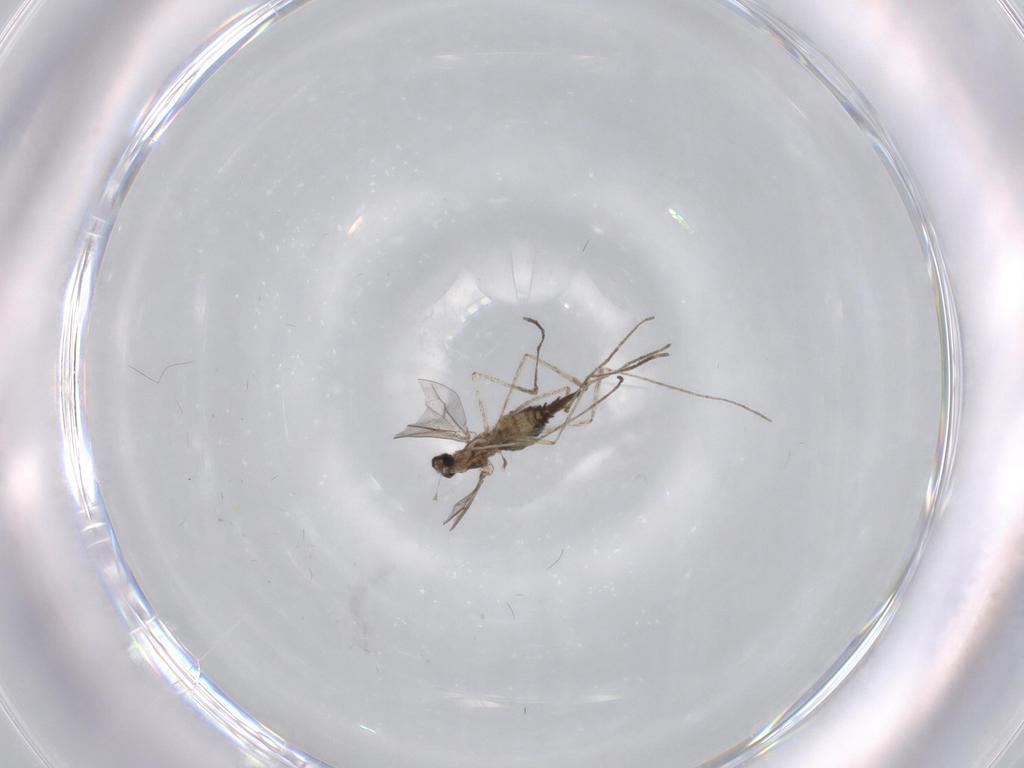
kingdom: Animalia
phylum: Arthropoda
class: Insecta
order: Diptera
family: Cecidomyiidae
